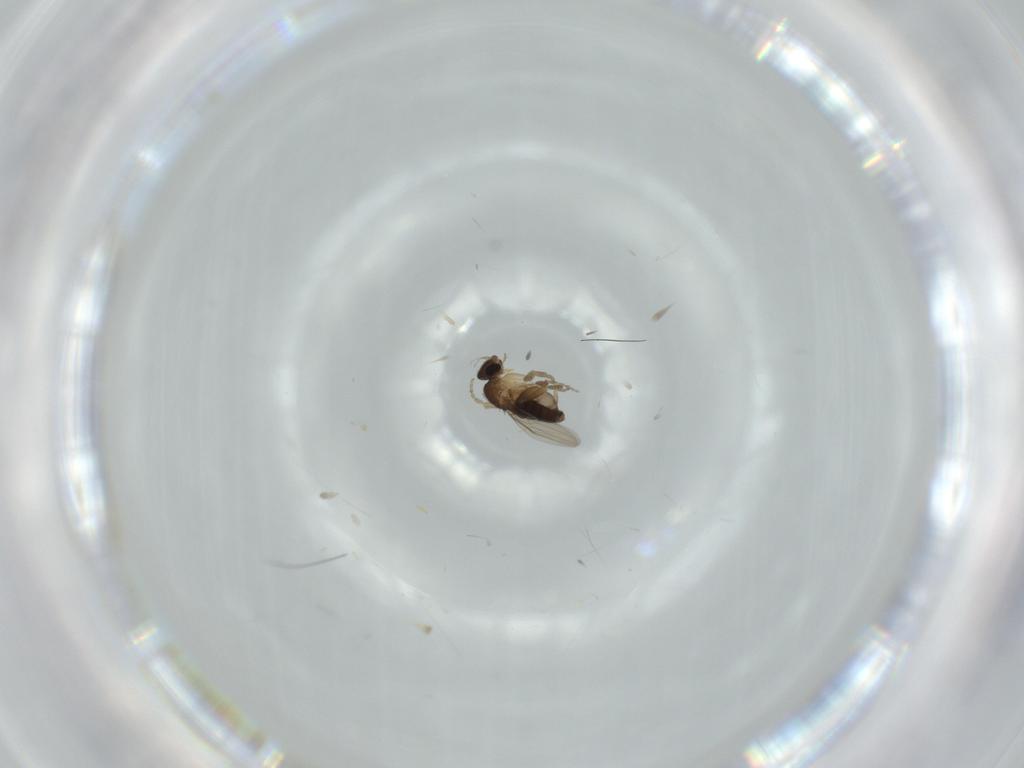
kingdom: Animalia
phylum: Arthropoda
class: Insecta
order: Diptera
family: Phoridae
